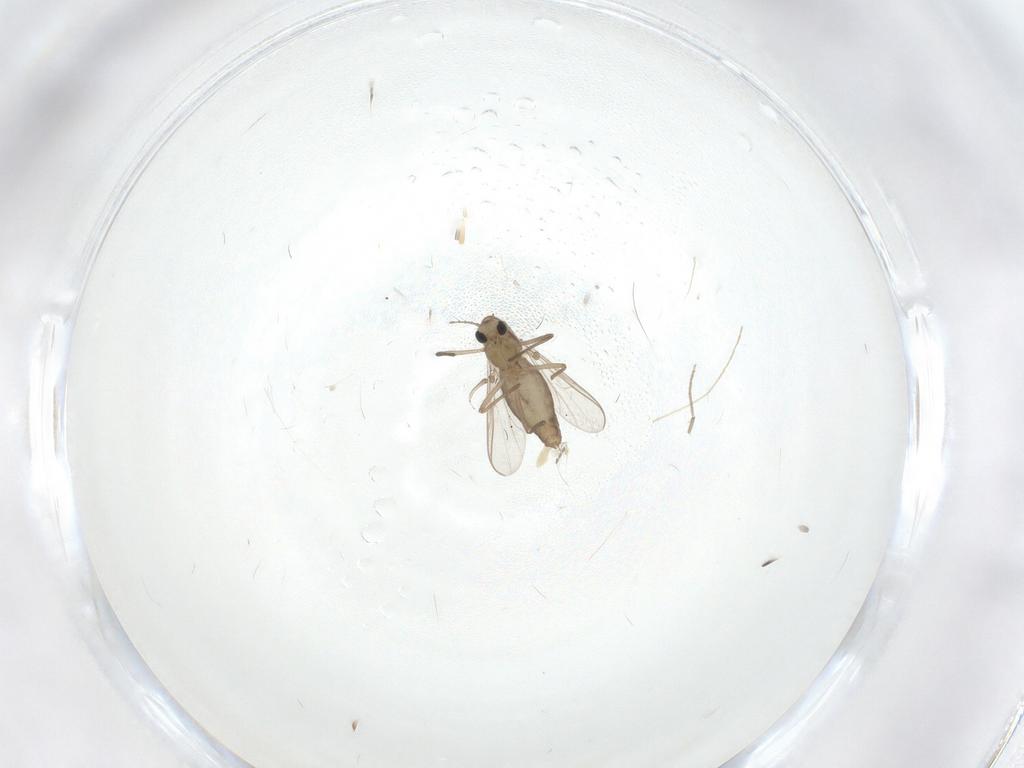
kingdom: Animalia
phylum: Arthropoda
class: Insecta
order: Diptera
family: Chironomidae
